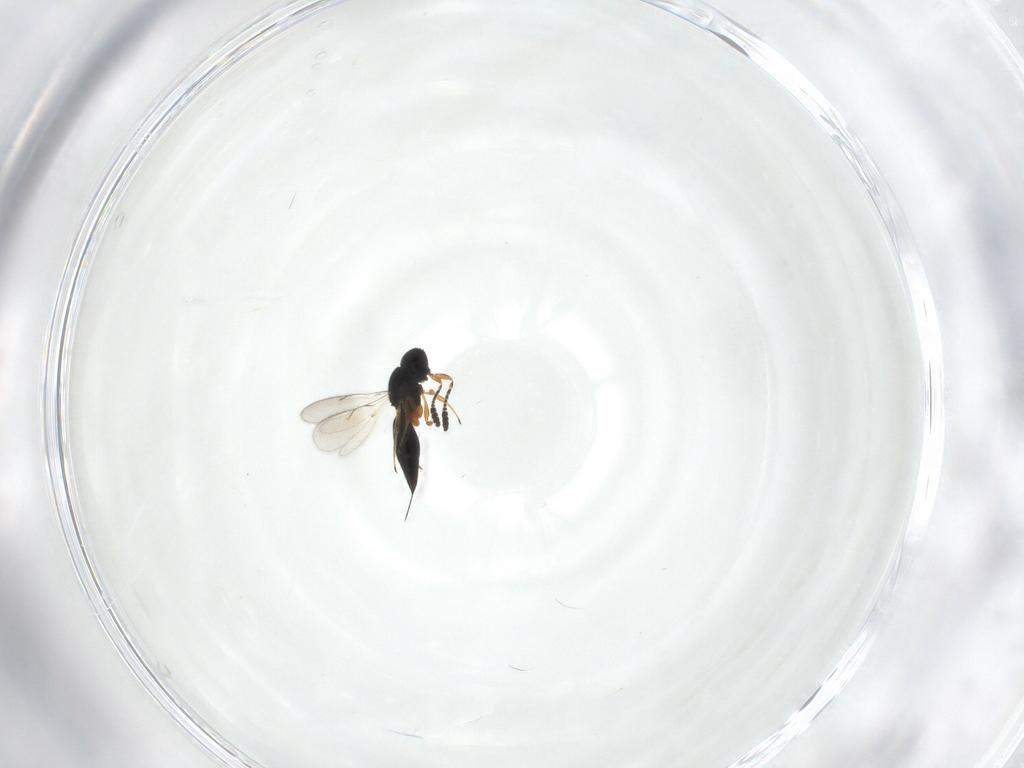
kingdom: Animalia
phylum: Arthropoda
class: Insecta
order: Hymenoptera
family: Scelionidae
